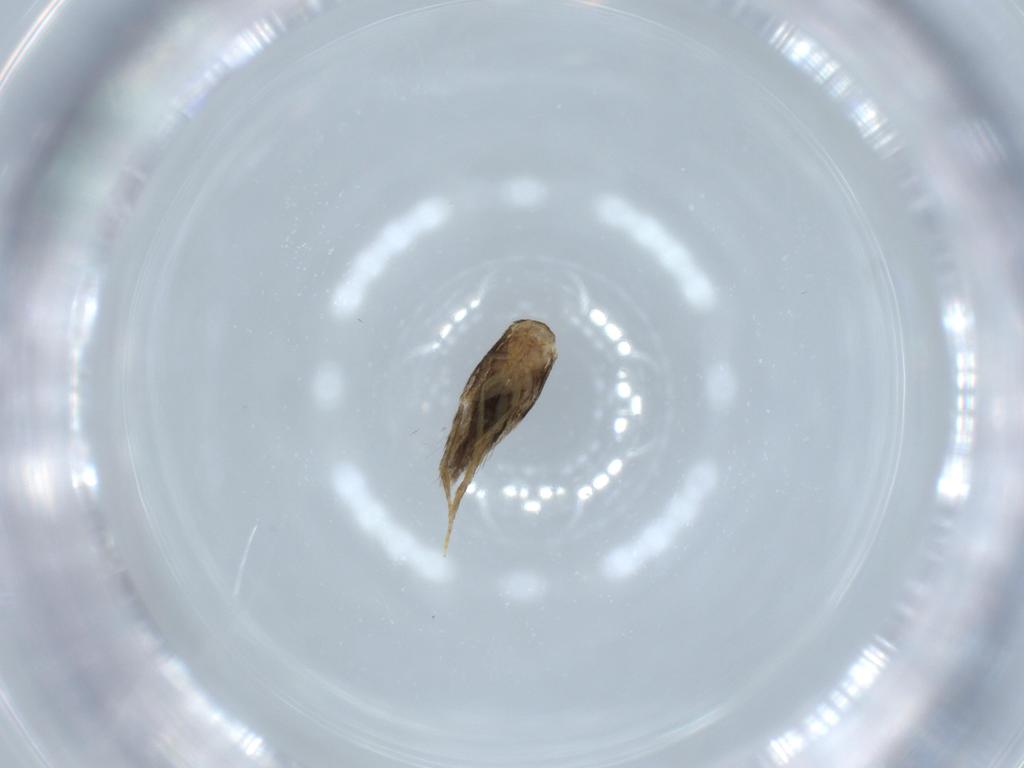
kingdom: Animalia
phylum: Arthropoda
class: Insecta
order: Lepidoptera
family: Copromorphidae
